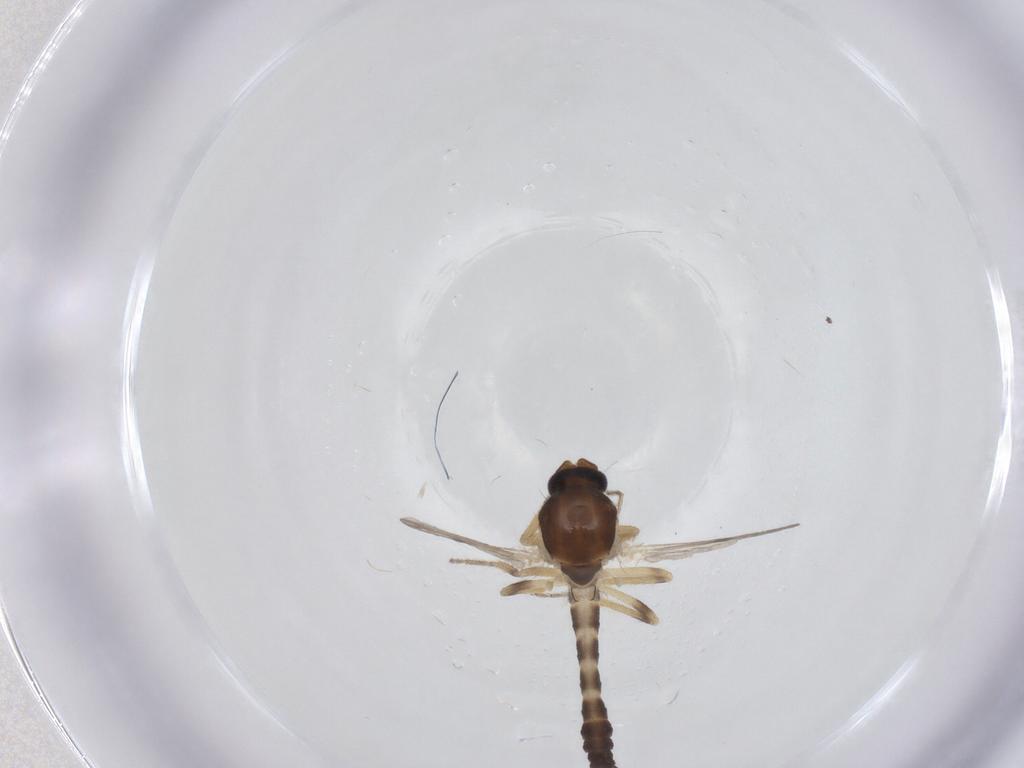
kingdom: Animalia
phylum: Arthropoda
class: Insecta
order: Diptera
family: Ceratopogonidae
